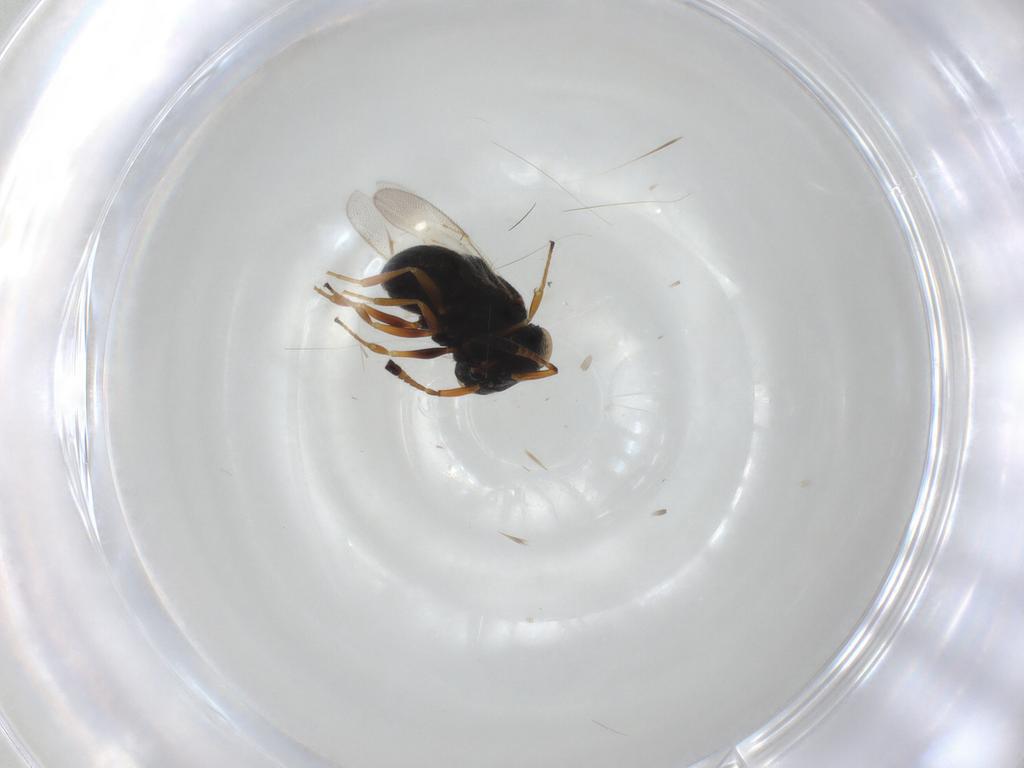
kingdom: Animalia
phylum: Arthropoda
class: Insecta
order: Hymenoptera
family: Scelionidae
